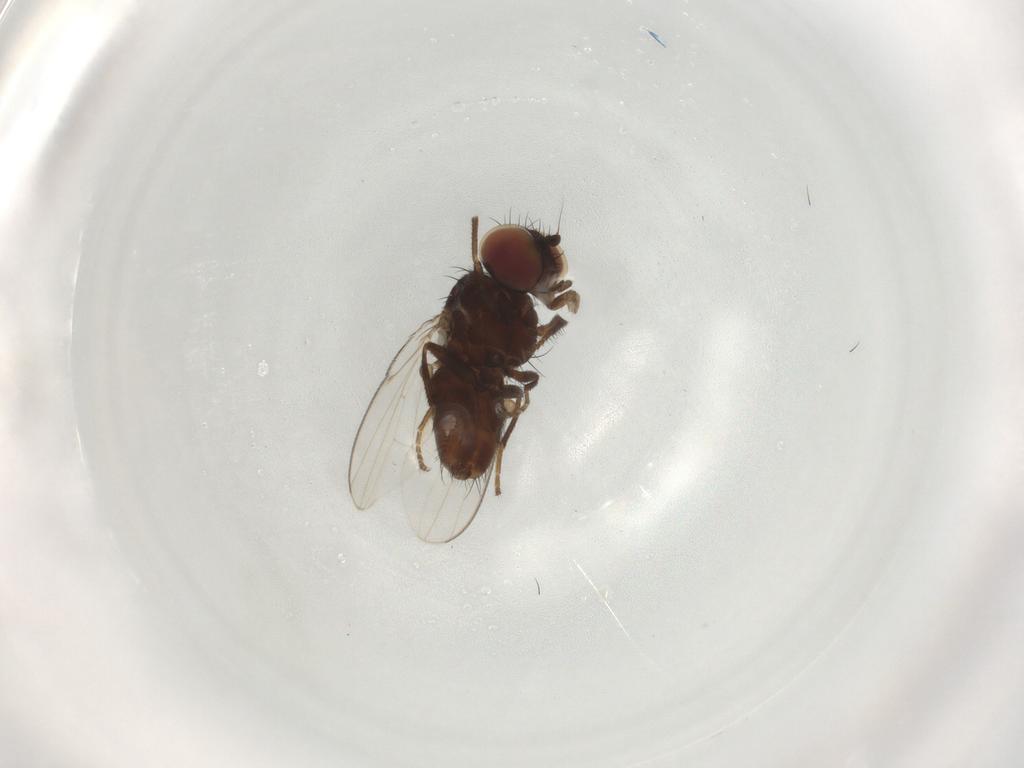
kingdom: Animalia
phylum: Arthropoda
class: Insecta
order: Diptera
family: Milichiidae
